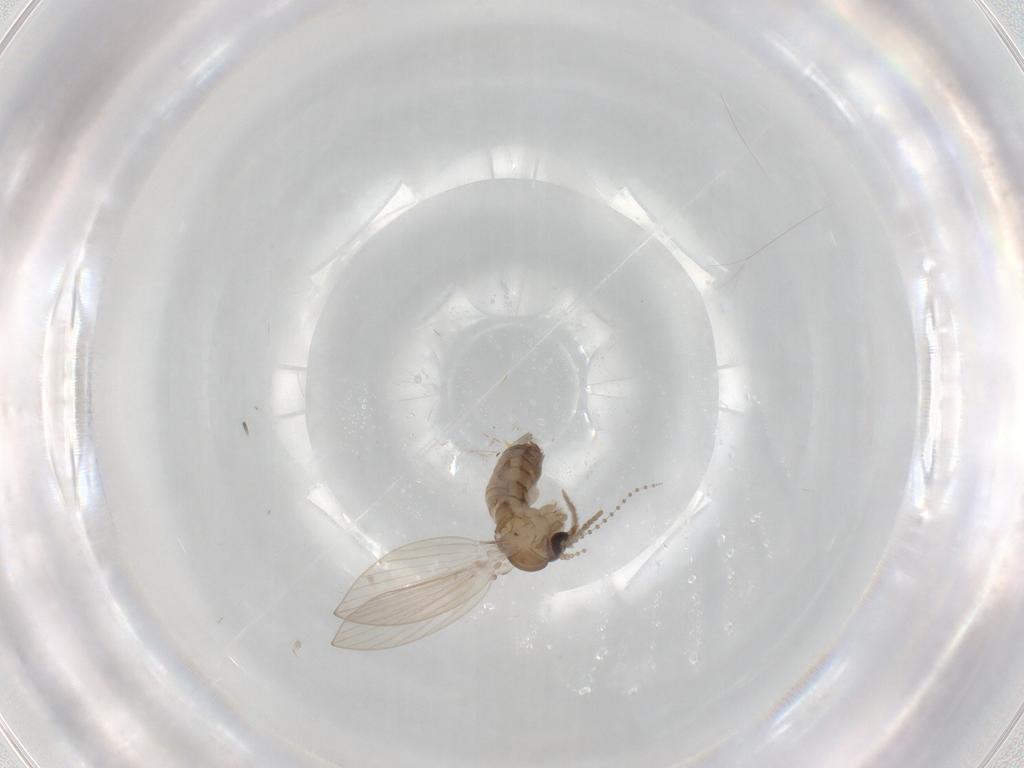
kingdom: Animalia
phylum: Arthropoda
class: Insecta
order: Diptera
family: Psychodidae
